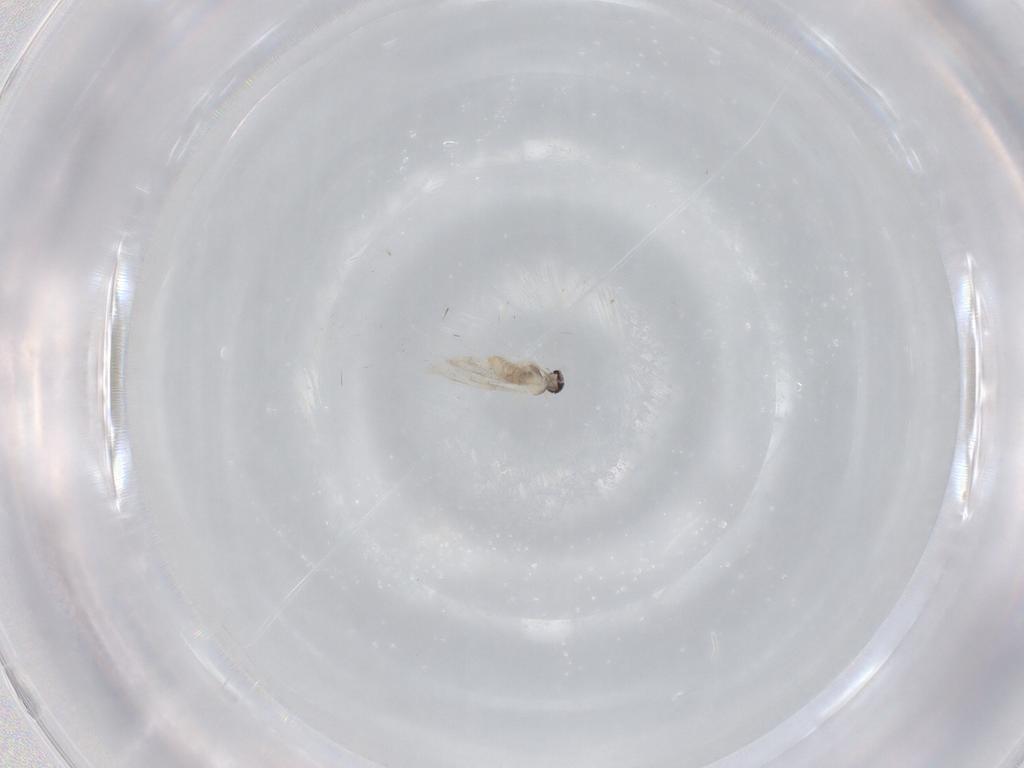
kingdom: Animalia
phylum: Arthropoda
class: Insecta
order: Diptera
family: Cecidomyiidae
